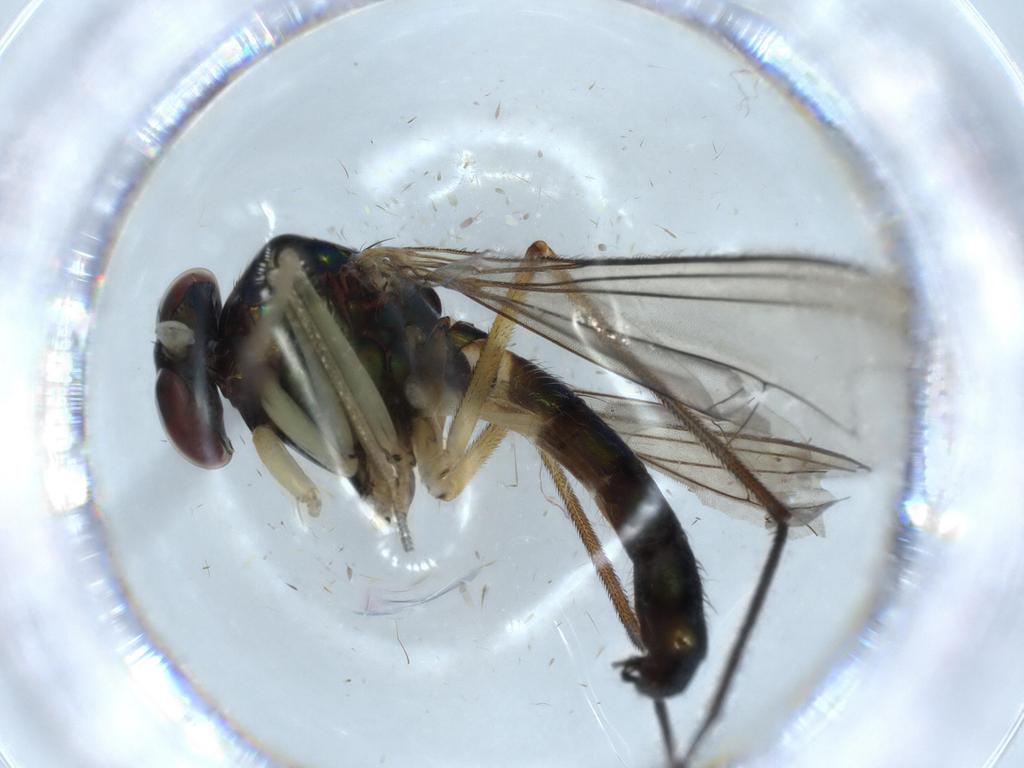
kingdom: Animalia
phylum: Arthropoda
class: Insecta
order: Diptera
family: Dolichopodidae
